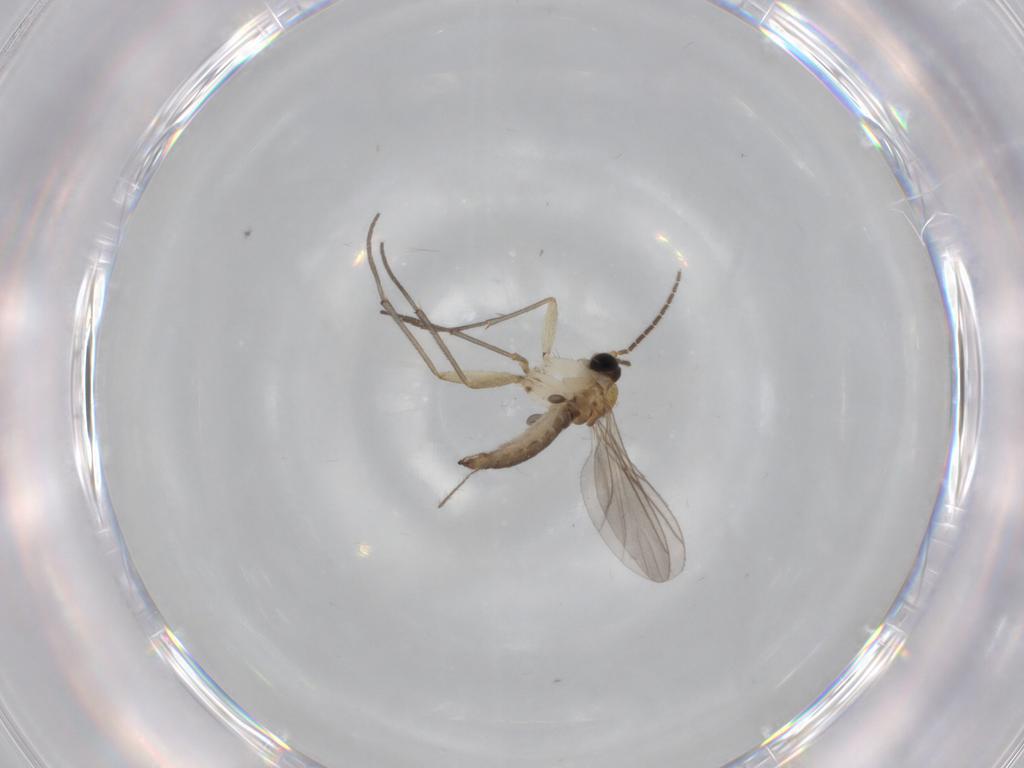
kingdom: Animalia
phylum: Arthropoda
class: Insecta
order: Diptera
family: Sciaridae
